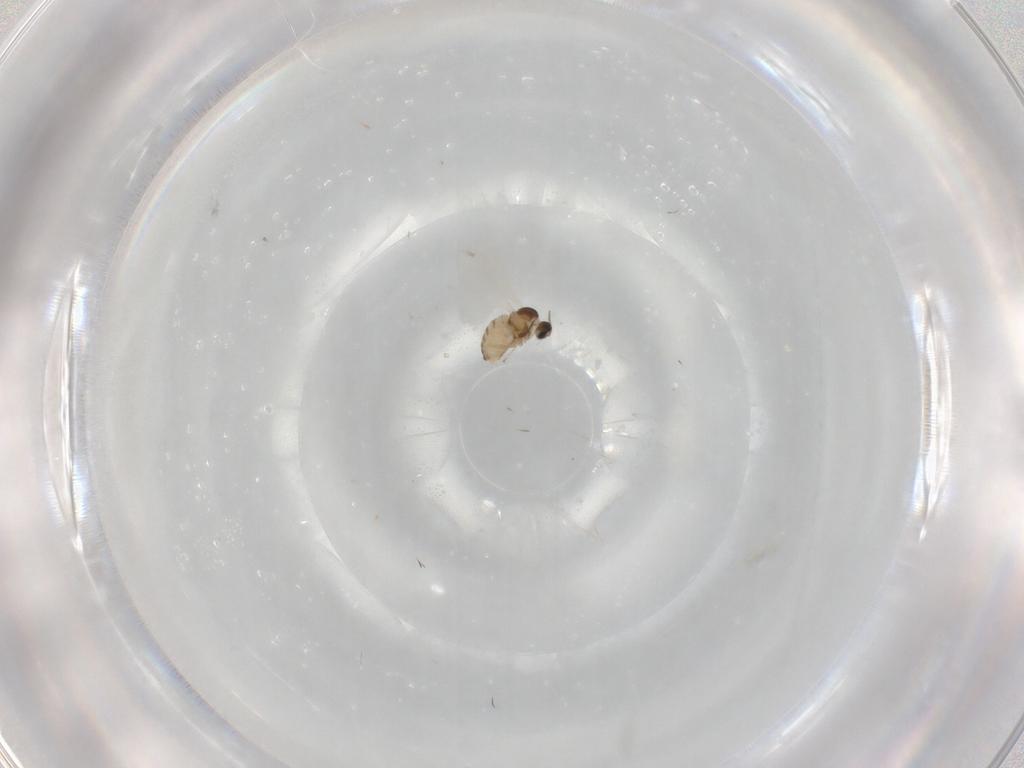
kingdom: Animalia
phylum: Arthropoda
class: Insecta
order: Diptera
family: Cecidomyiidae
